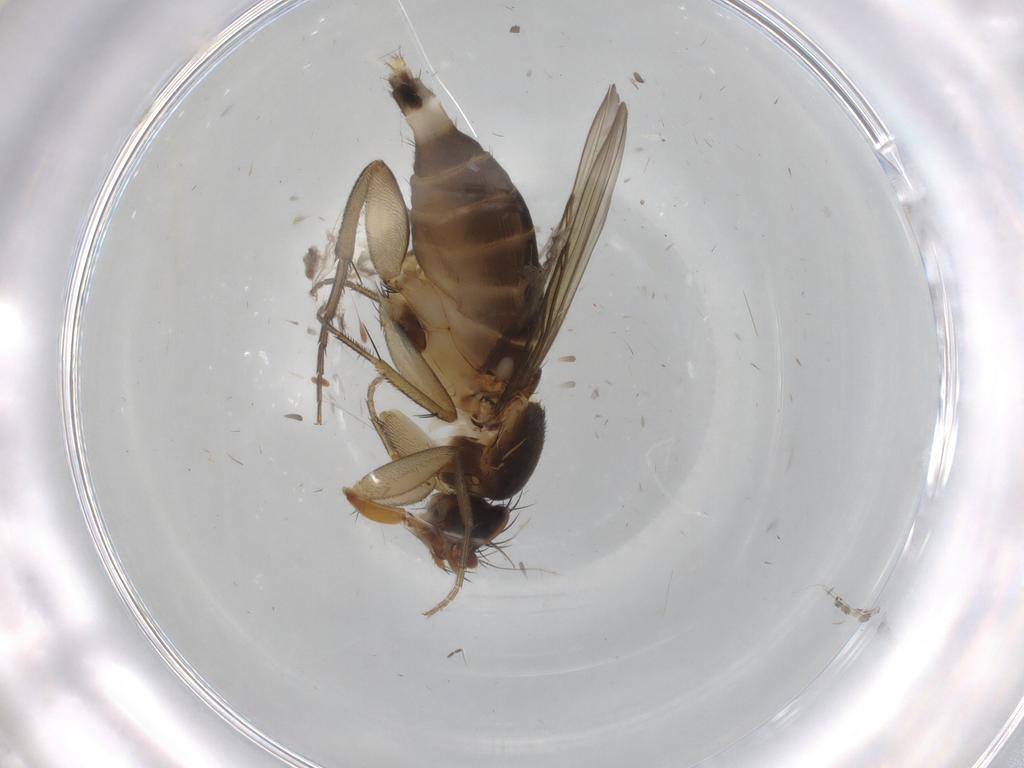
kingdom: Animalia
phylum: Arthropoda
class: Insecta
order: Diptera
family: Phoridae
